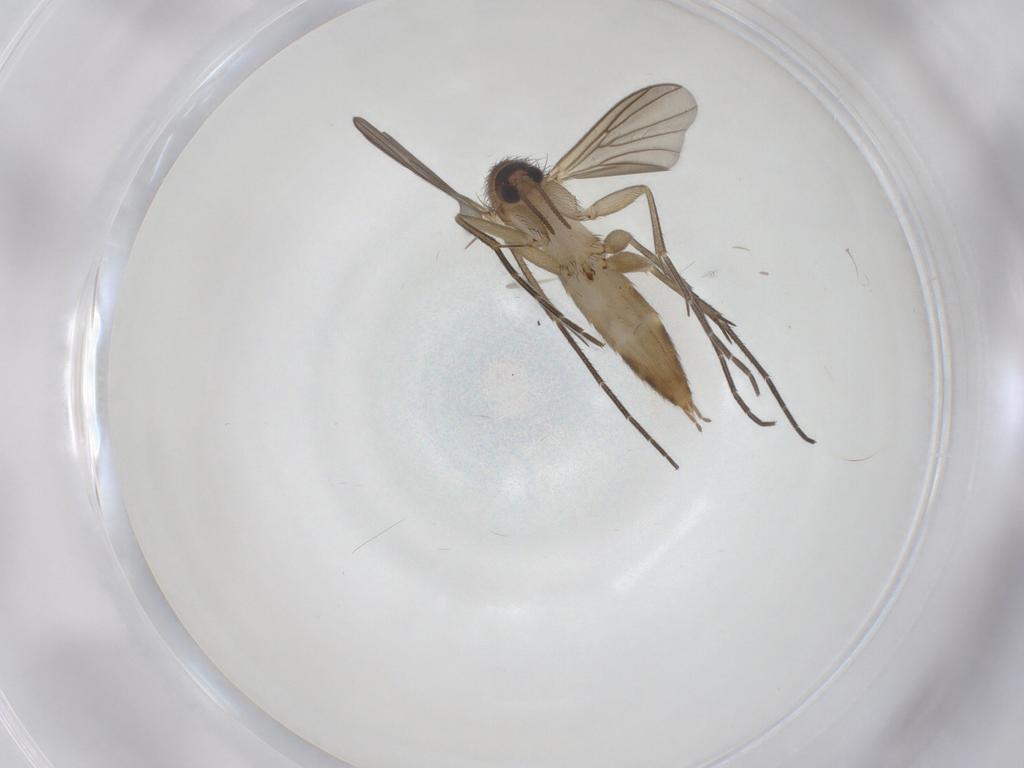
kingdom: Animalia
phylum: Arthropoda
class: Insecta
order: Diptera
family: Mycetophilidae
